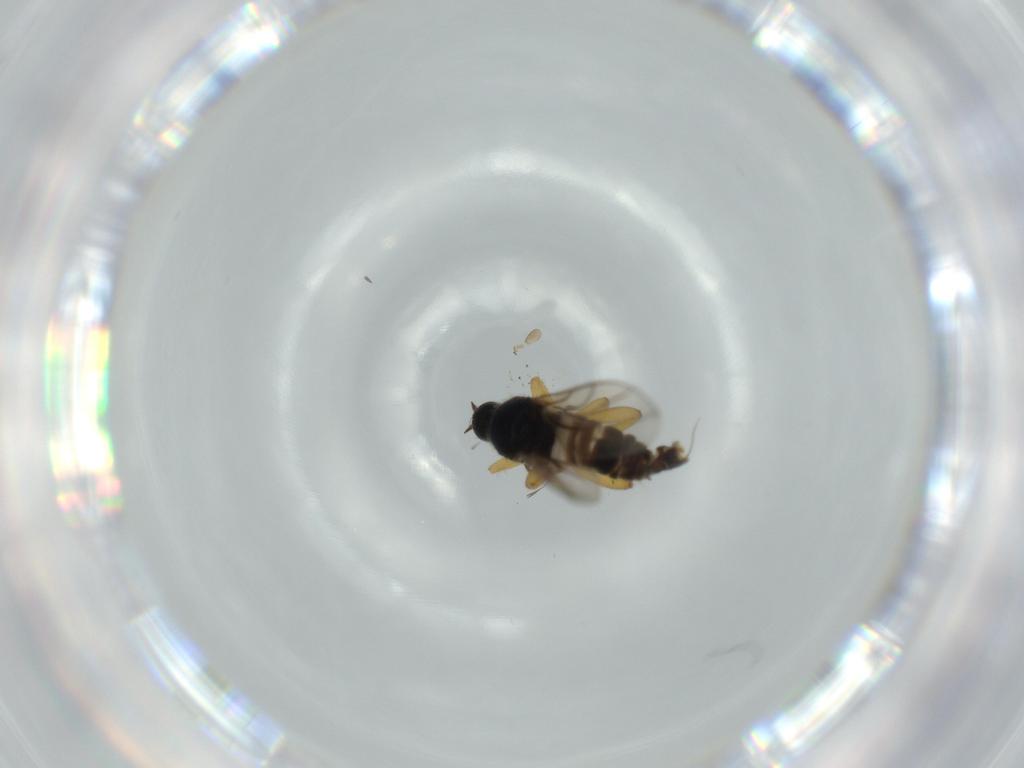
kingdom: Animalia
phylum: Arthropoda
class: Insecta
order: Diptera
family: Hybotidae
